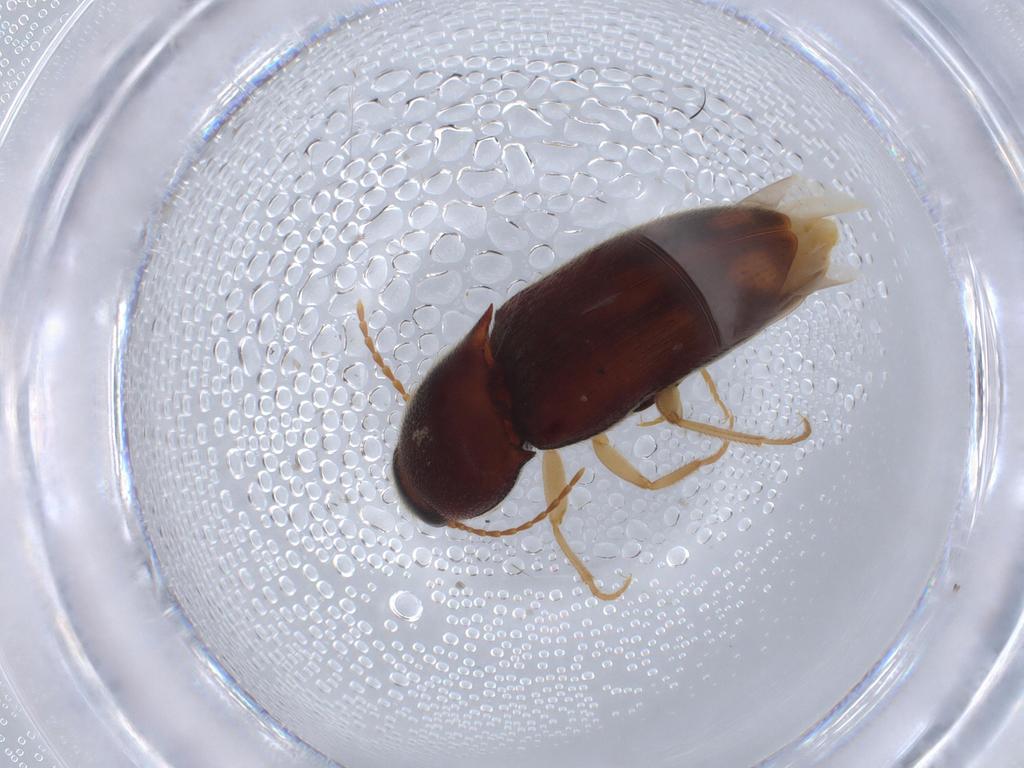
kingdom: Animalia
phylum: Arthropoda
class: Insecta
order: Coleoptera
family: Elateridae
